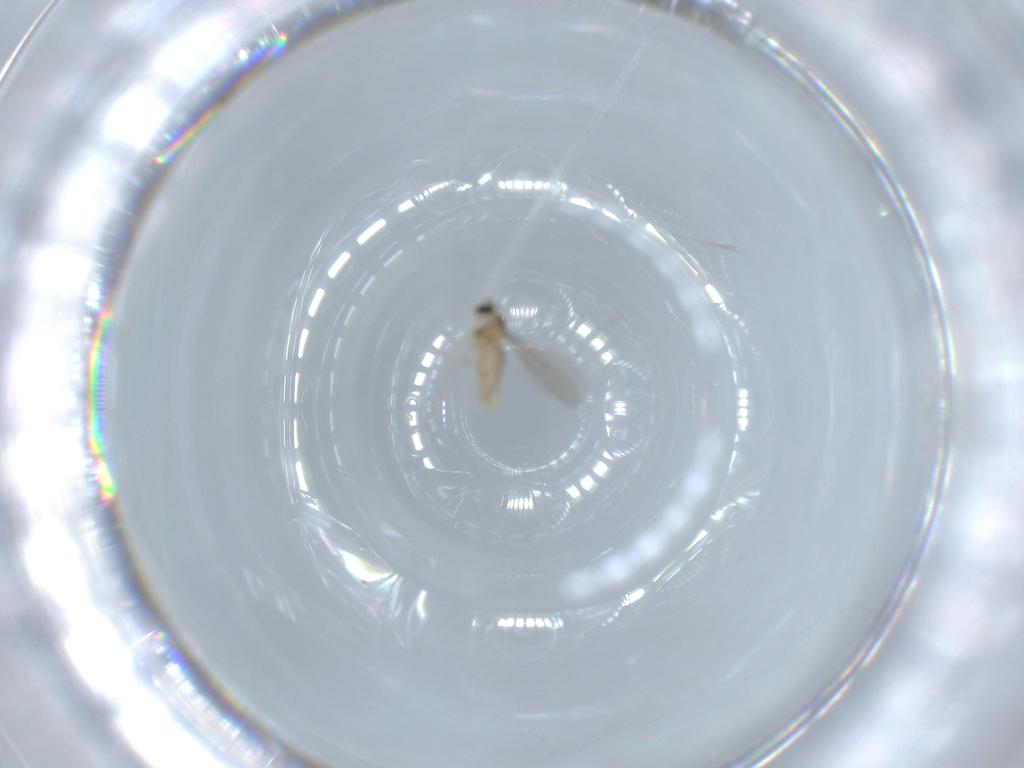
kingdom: Animalia
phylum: Arthropoda
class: Insecta
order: Diptera
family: Cecidomyiidae
